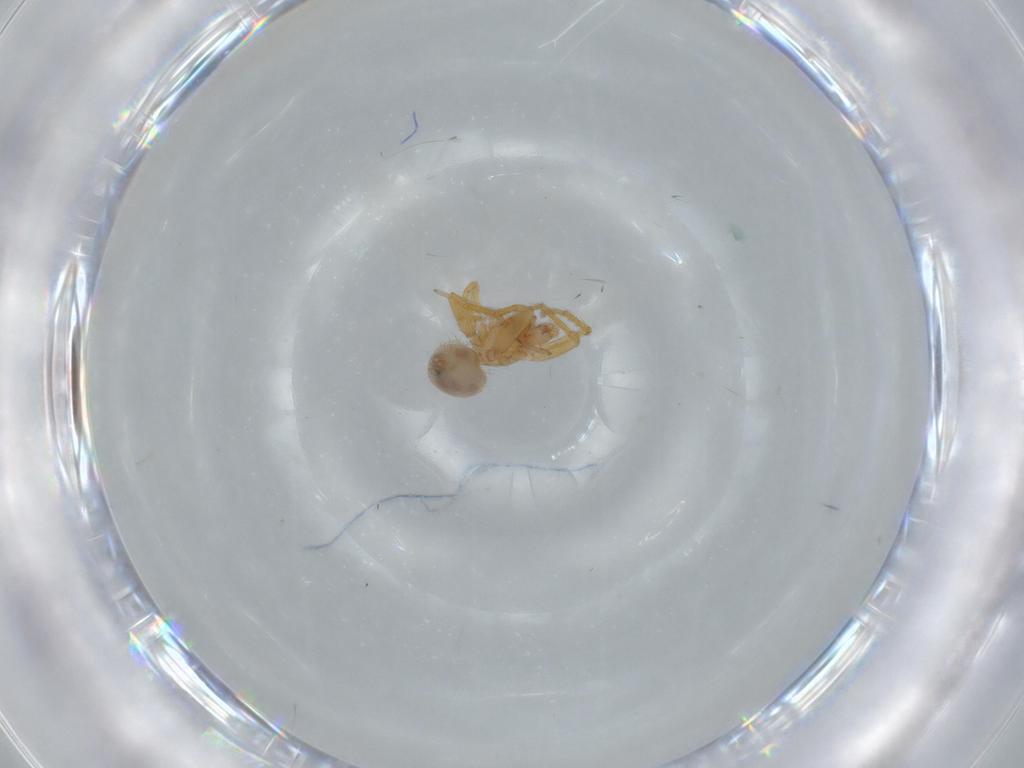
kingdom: Animalia
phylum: Arthropoda
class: Arachnida
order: Araneae
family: Oonopidae
